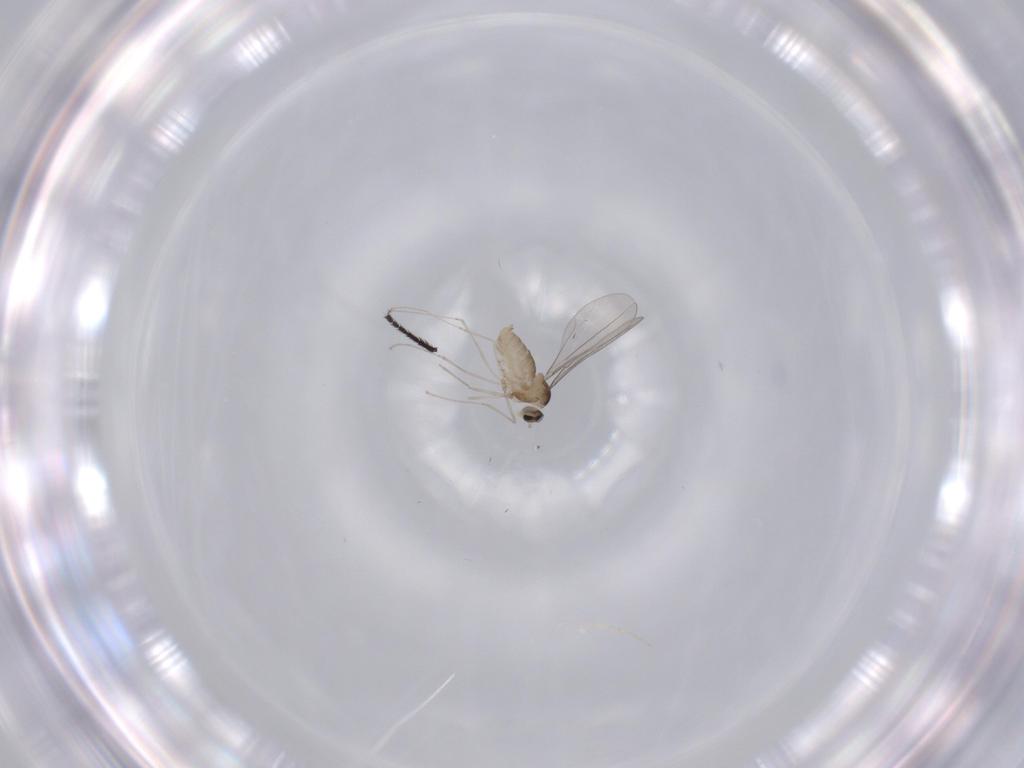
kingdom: Animalia
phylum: Arthropoda
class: Insecta
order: Diptera
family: Cecidomyiidae
